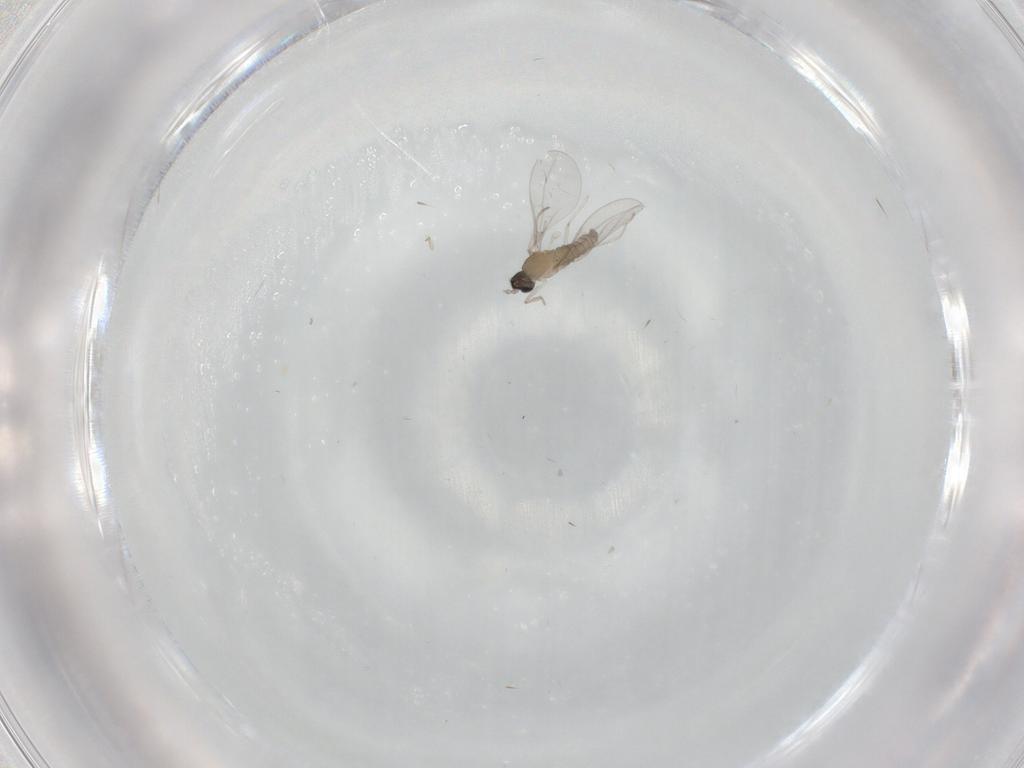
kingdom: Animalia
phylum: Arthropoda
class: Insecta
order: Diptera
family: Cecidomyiidae
